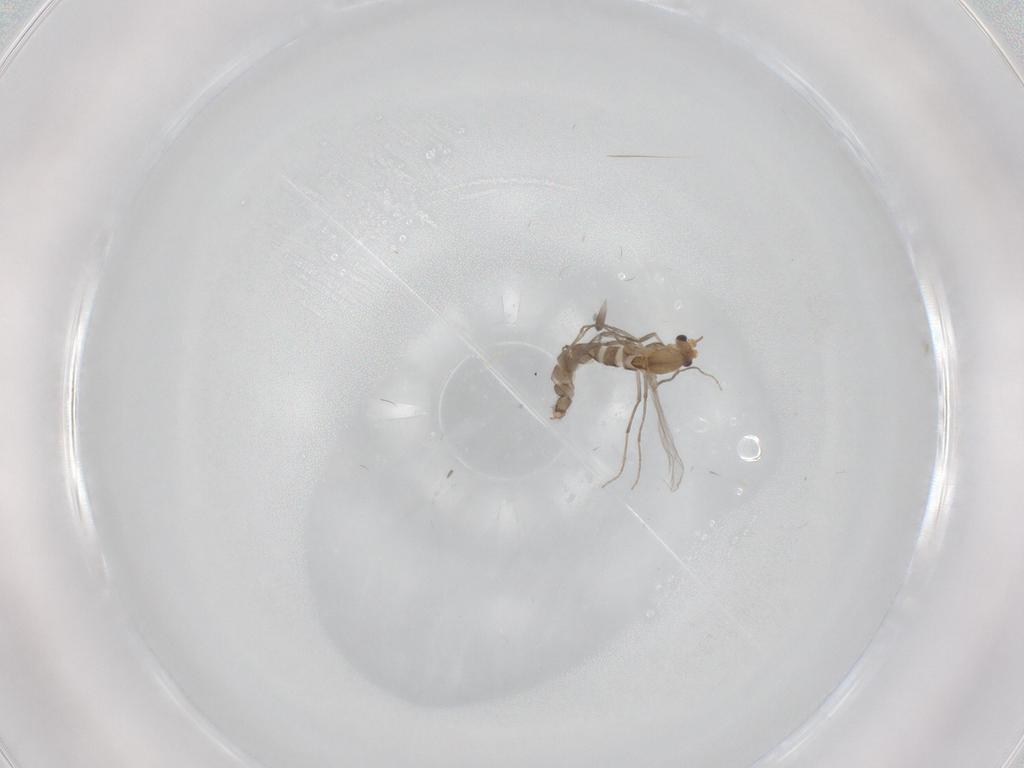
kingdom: Animalia
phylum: Arthropoda
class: Insecta
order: Diptera
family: Chironomidae
